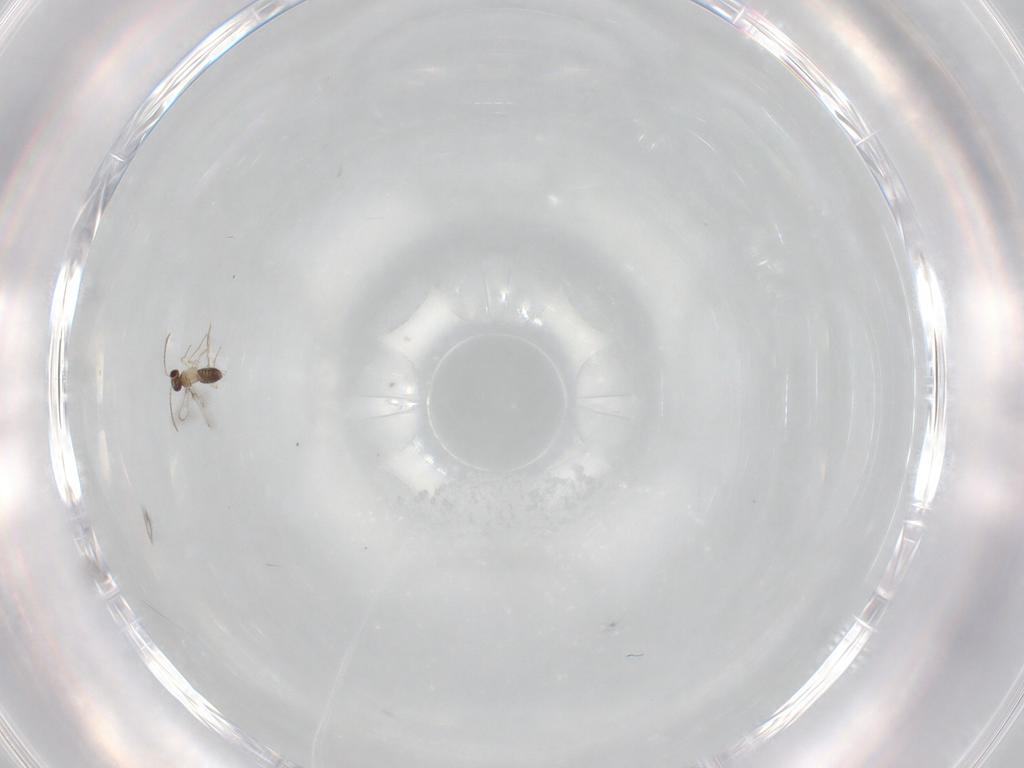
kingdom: Animalia
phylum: Arthropoda
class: Insecta
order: Hymenoptera
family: Mymaridae
